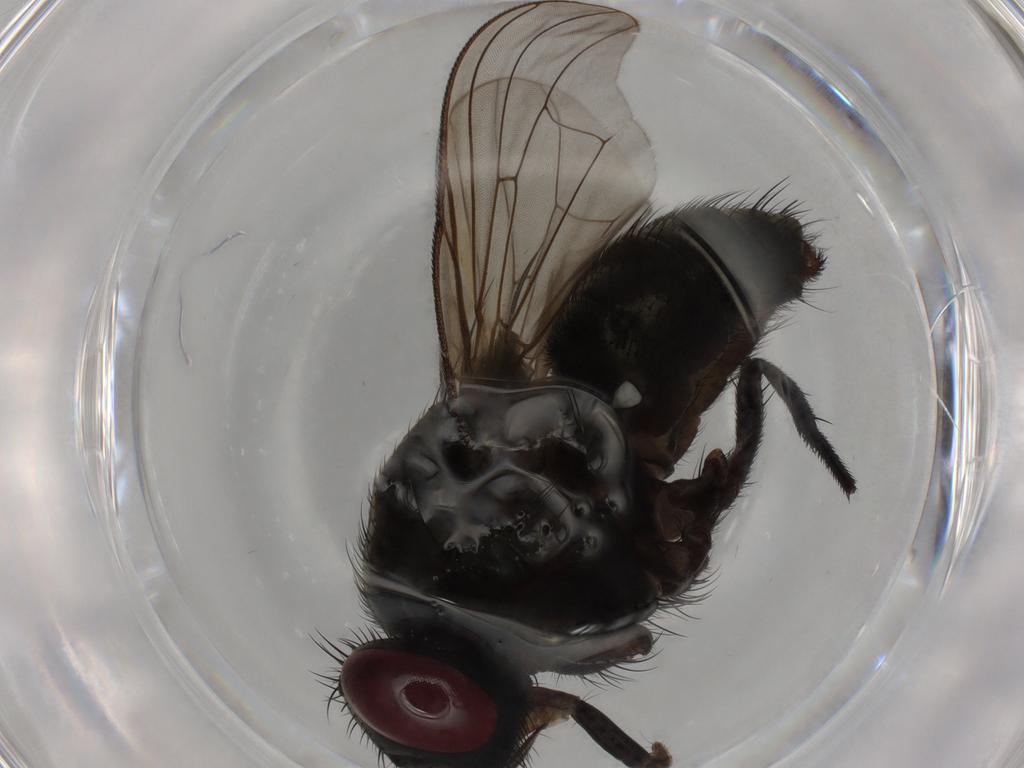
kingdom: Animalia
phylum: Arthropoda
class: Insecta
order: Diptera
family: Muscidae
